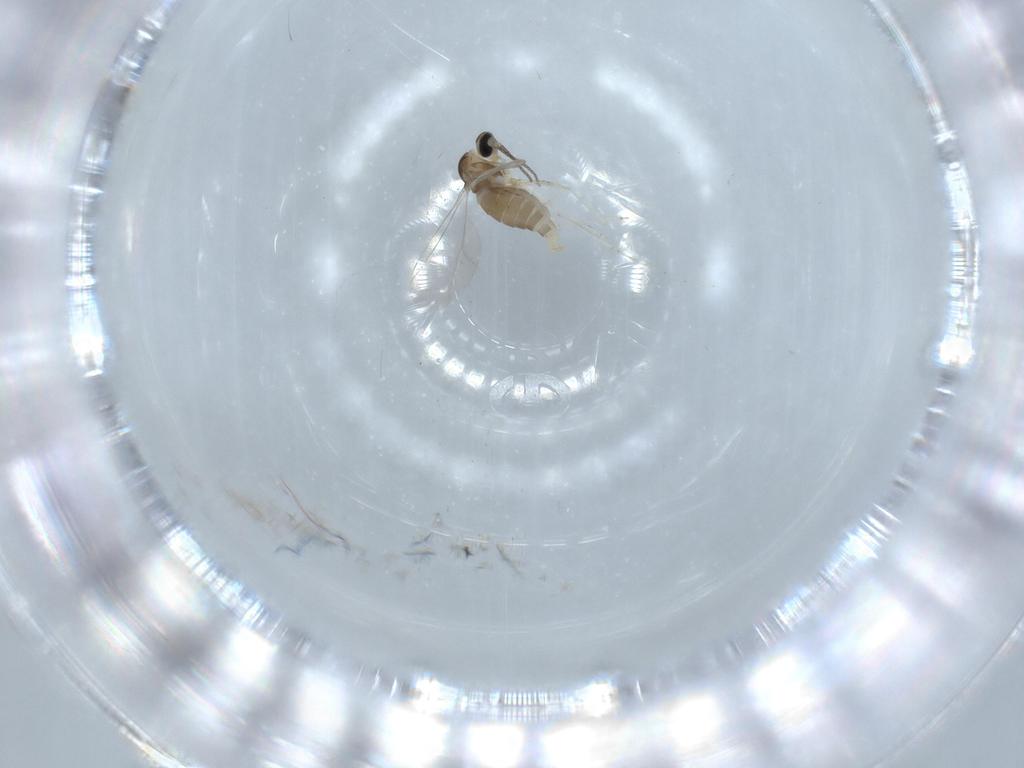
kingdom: Animalia
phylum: Arthropoda
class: Insecta
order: Diptera
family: Cecidomyiidae
